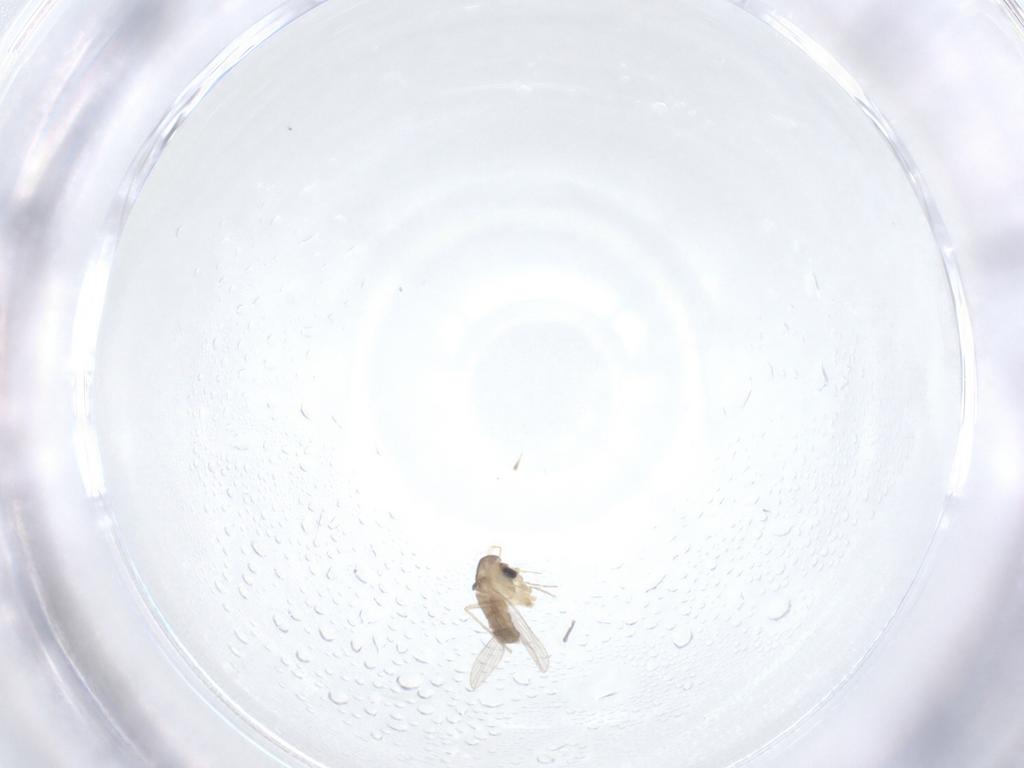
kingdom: Animalia
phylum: Arthropoda
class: Insecta
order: Diptera
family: Psychodidae
